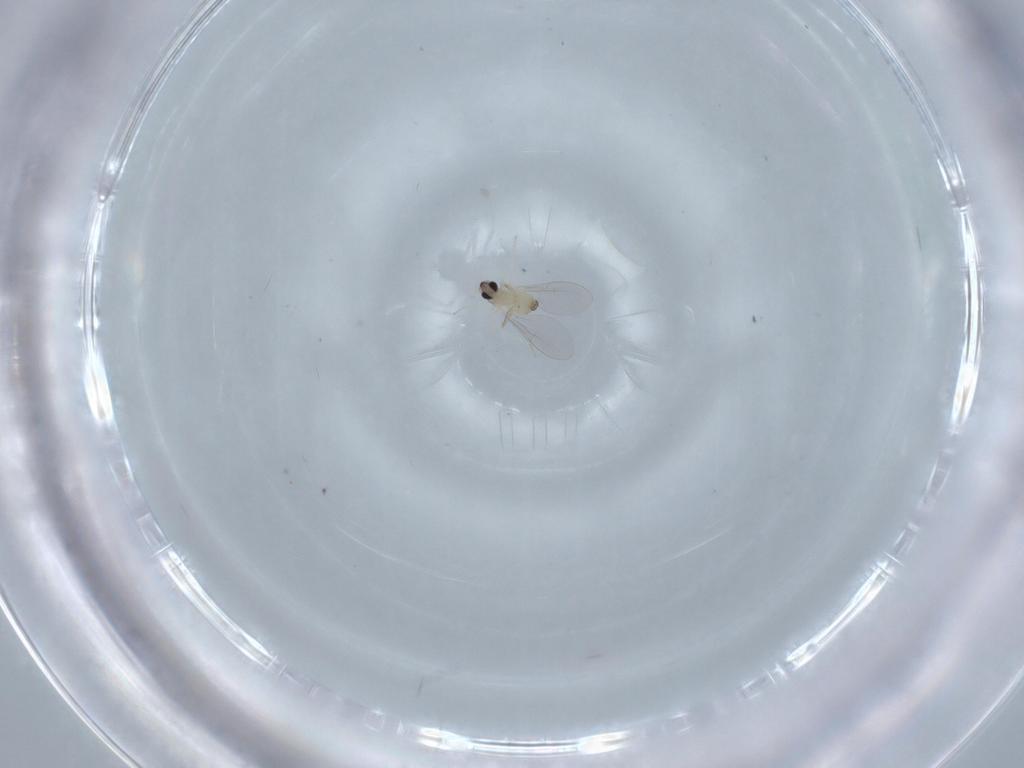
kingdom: Animalia
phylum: Arthropoda
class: Insecta
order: Diptera
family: Cecidomyiidae
